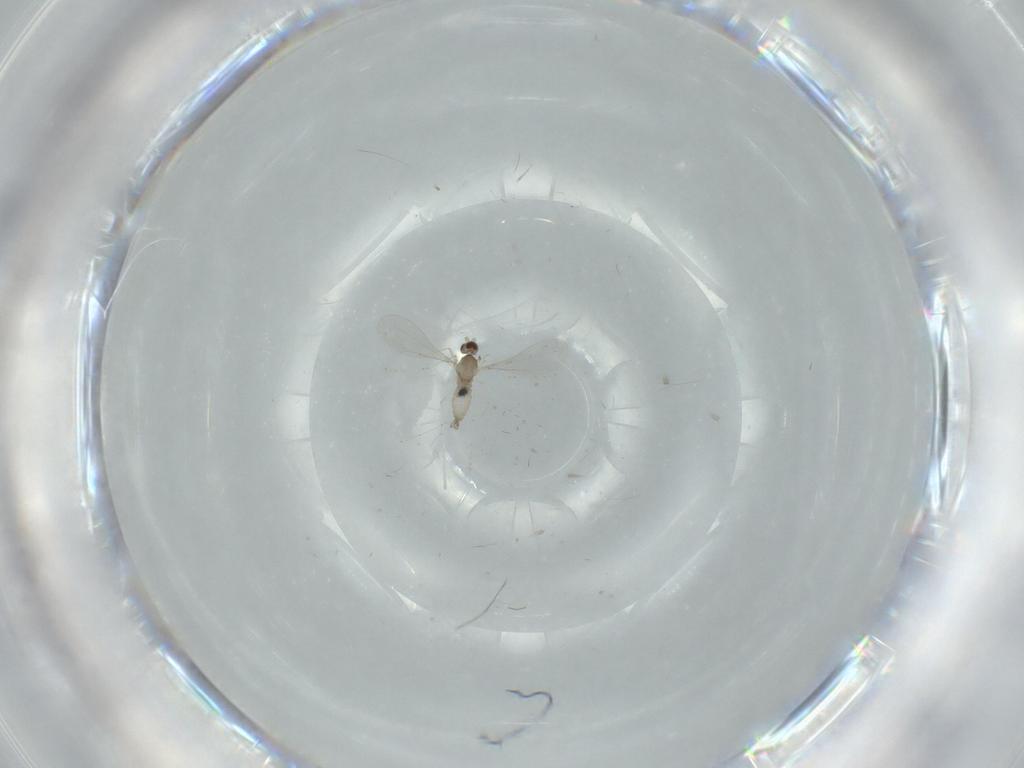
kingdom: Animalia
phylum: Arthropoda
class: Insecta
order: Diptera
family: Cecidomyiidae
